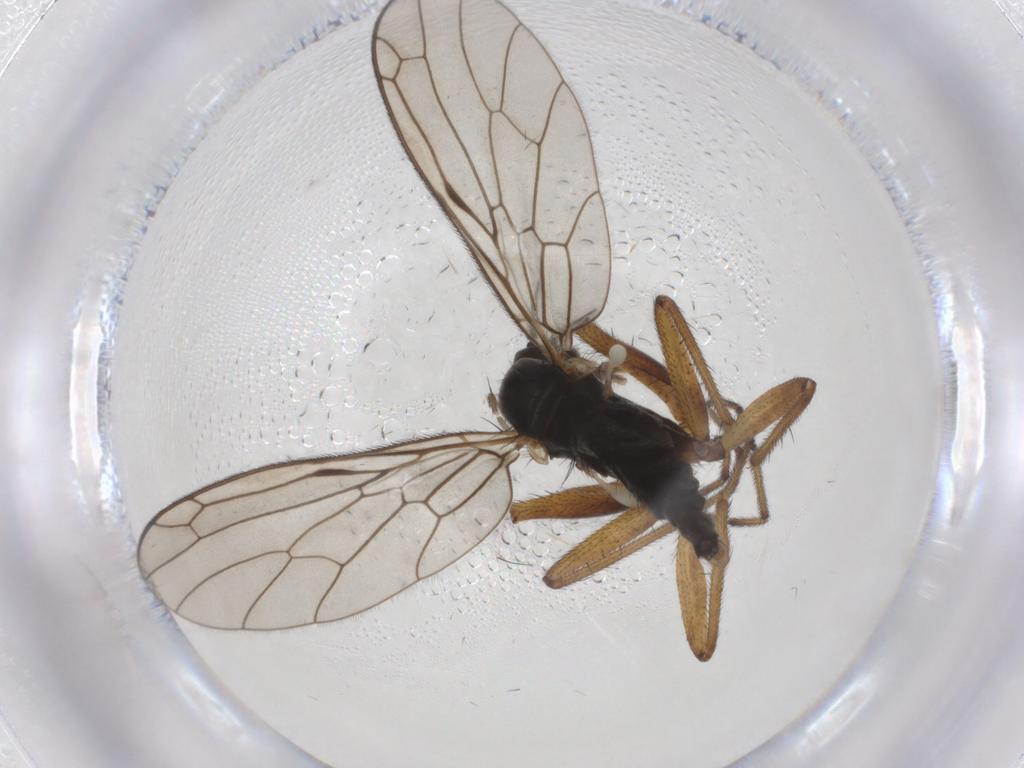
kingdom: Animalia
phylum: Arthropoda
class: Insecta
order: Diptera
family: Empididae
